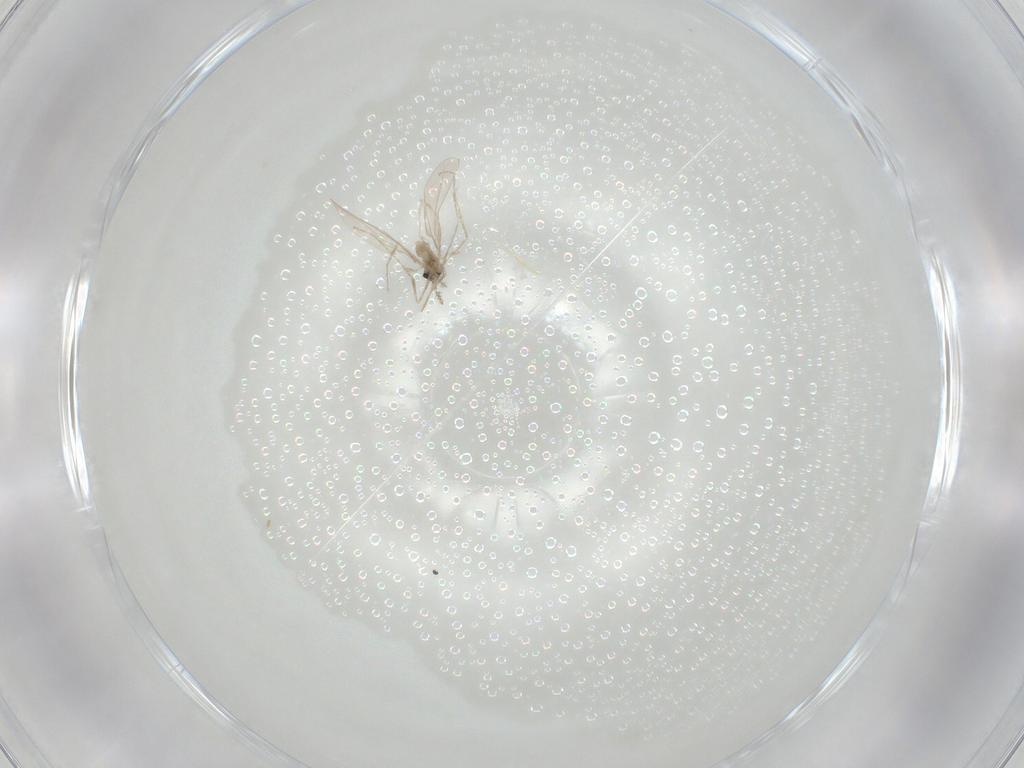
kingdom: Animalia
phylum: Arthropoda
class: Insecta
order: Diptera
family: Cecidomyiidae
